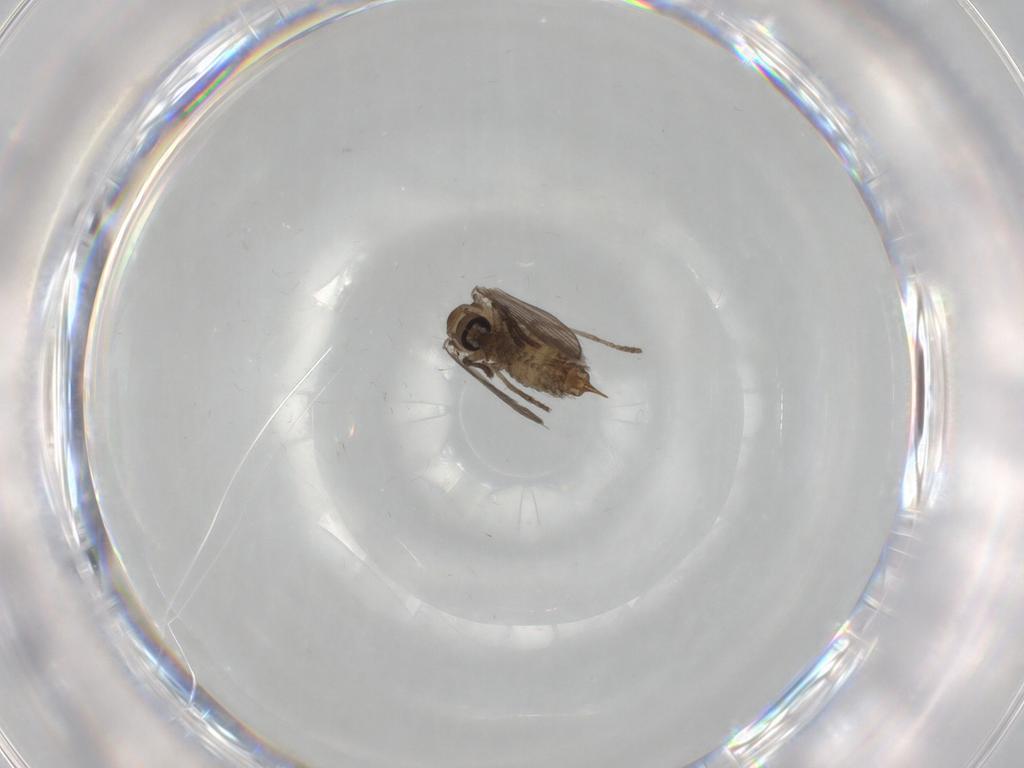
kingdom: Animalia
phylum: Arthropoda
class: Insecta
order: Diptera
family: Psychodidae
